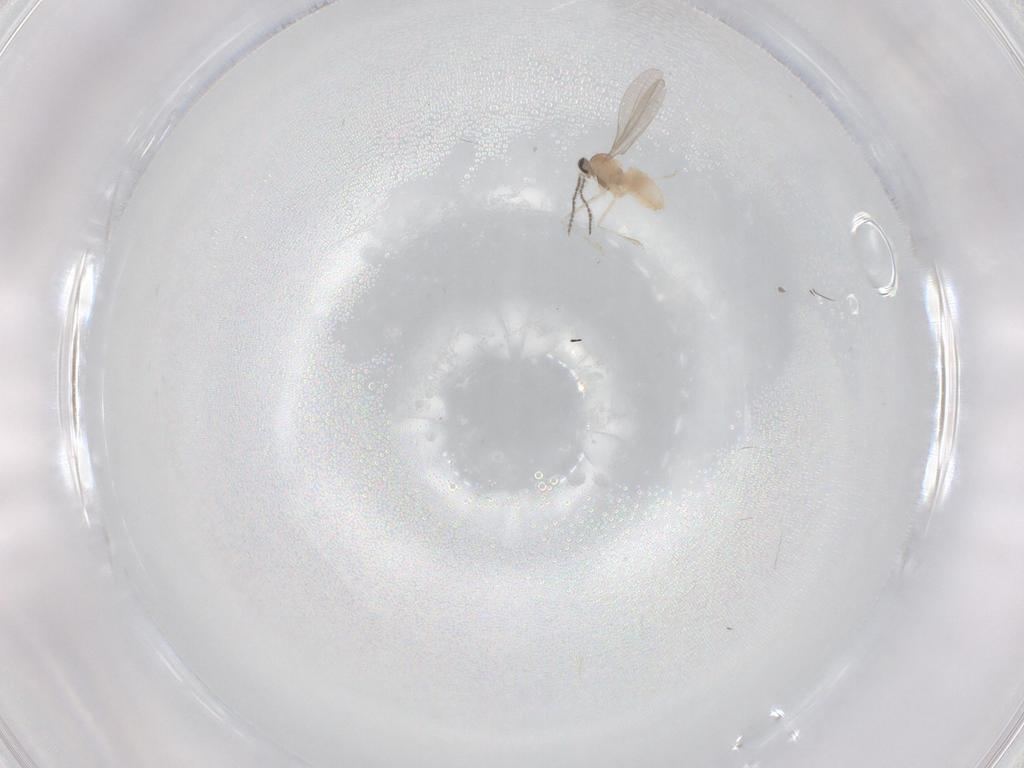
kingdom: Animalia
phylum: Arthropoda
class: Insecta
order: Diptera
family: Cecidomyiidae
